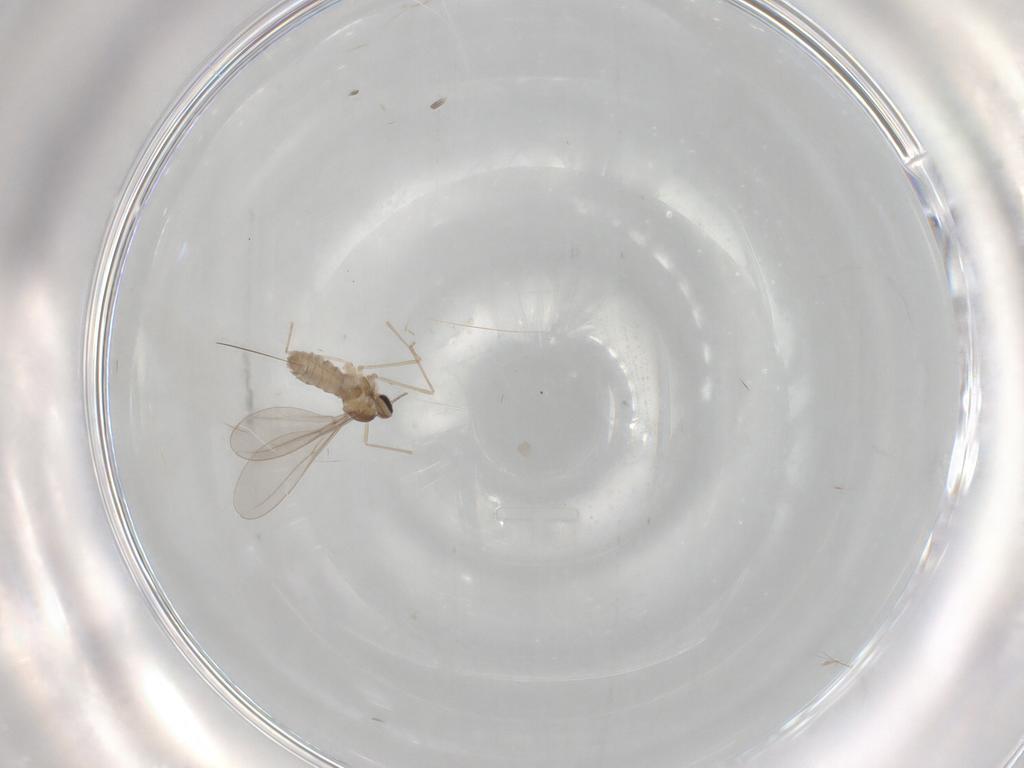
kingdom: Animalia
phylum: Arthropoda
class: Insecta
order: Diptera
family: Cecidomyiidae
